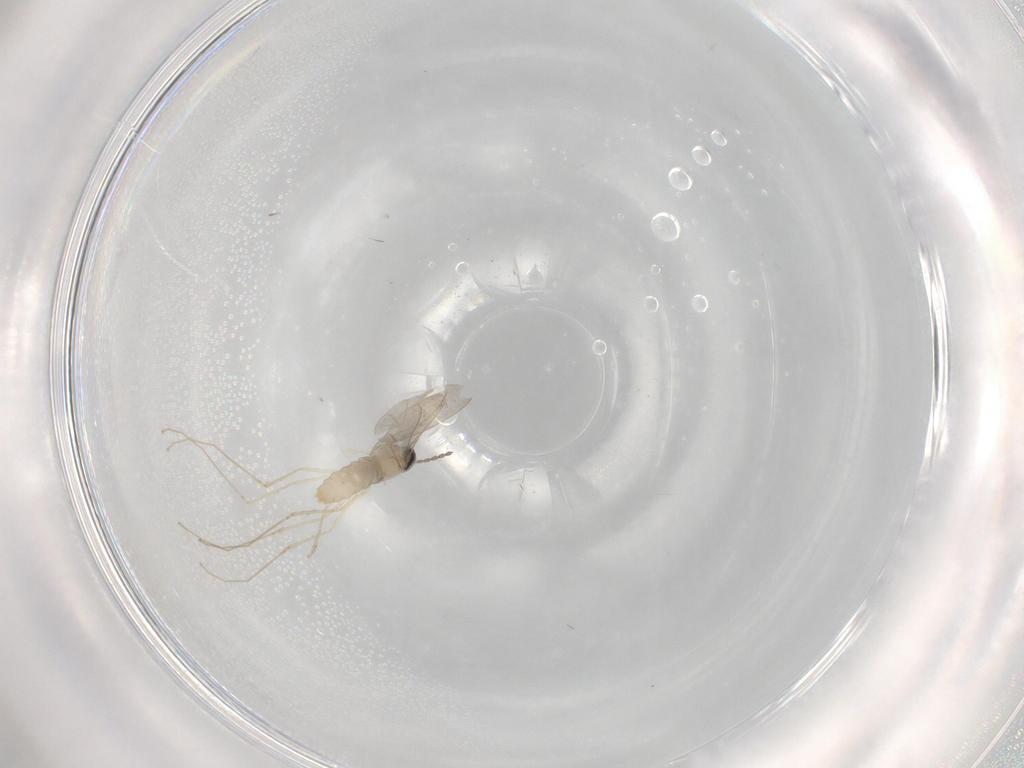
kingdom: Animalia
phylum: Arthropoda
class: Insecta
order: Diptera
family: Cecidomyiidae
